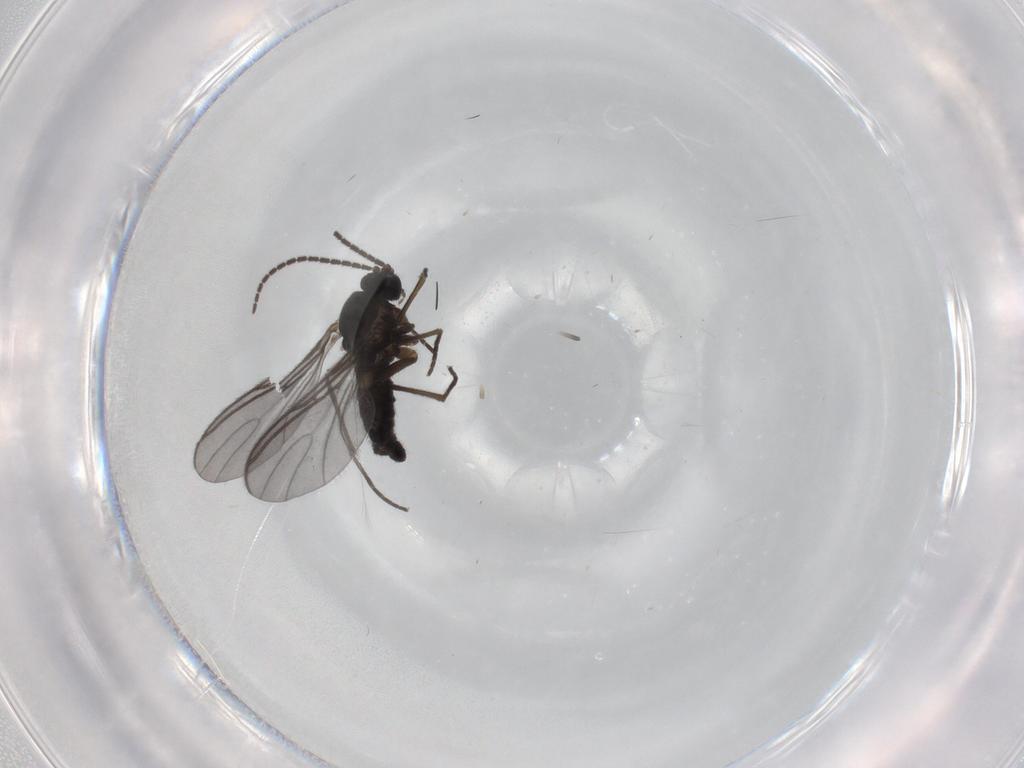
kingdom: Animalia
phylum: Arthropoda
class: Insecta
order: Diptera
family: Sciaridae
